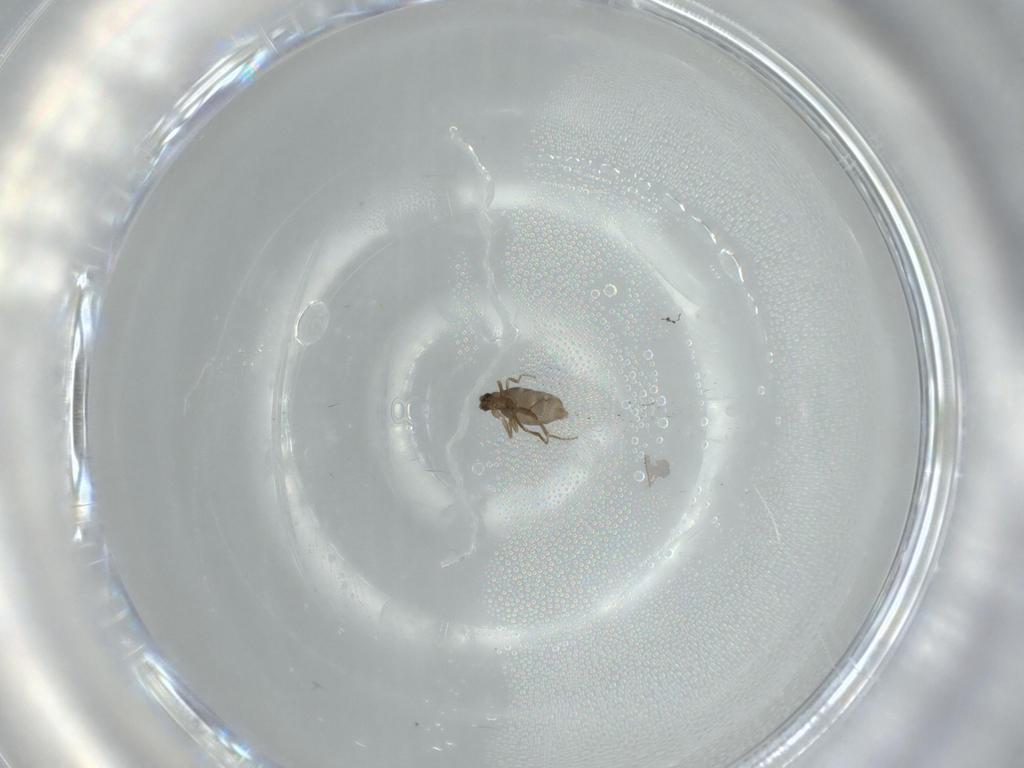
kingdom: Animalia
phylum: Arthropoda
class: Insecta
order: Diptera
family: Phoridae
